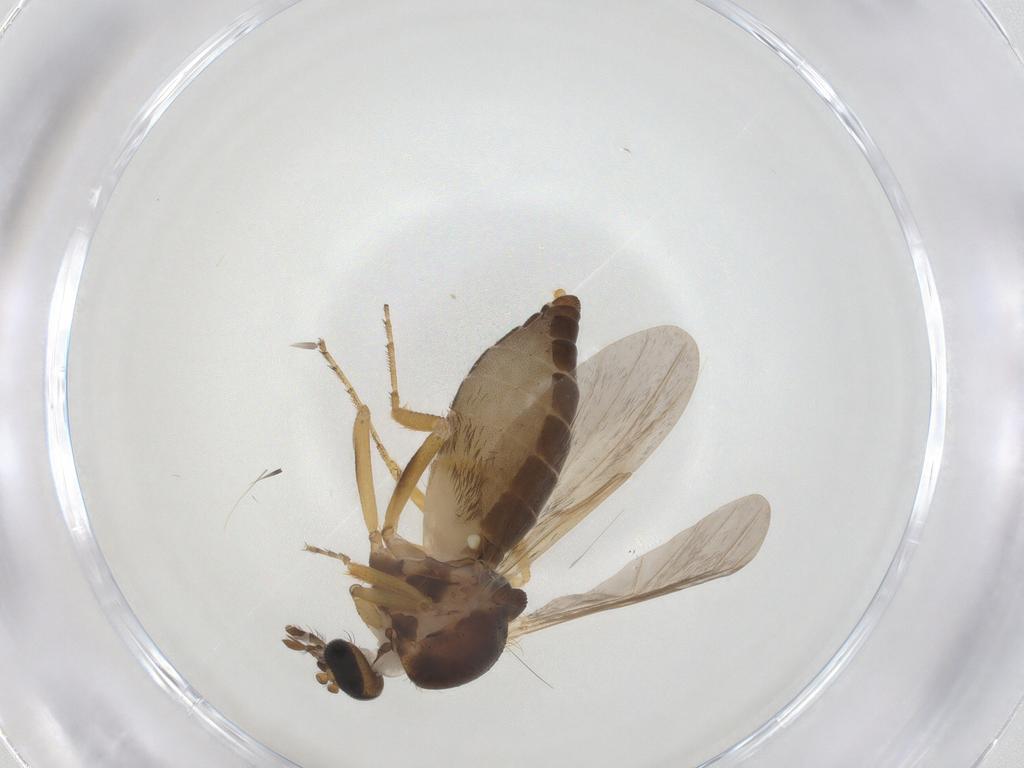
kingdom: Animalia
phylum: Arthropoda
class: Insecta
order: Diptera
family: Ceratopogonidae
